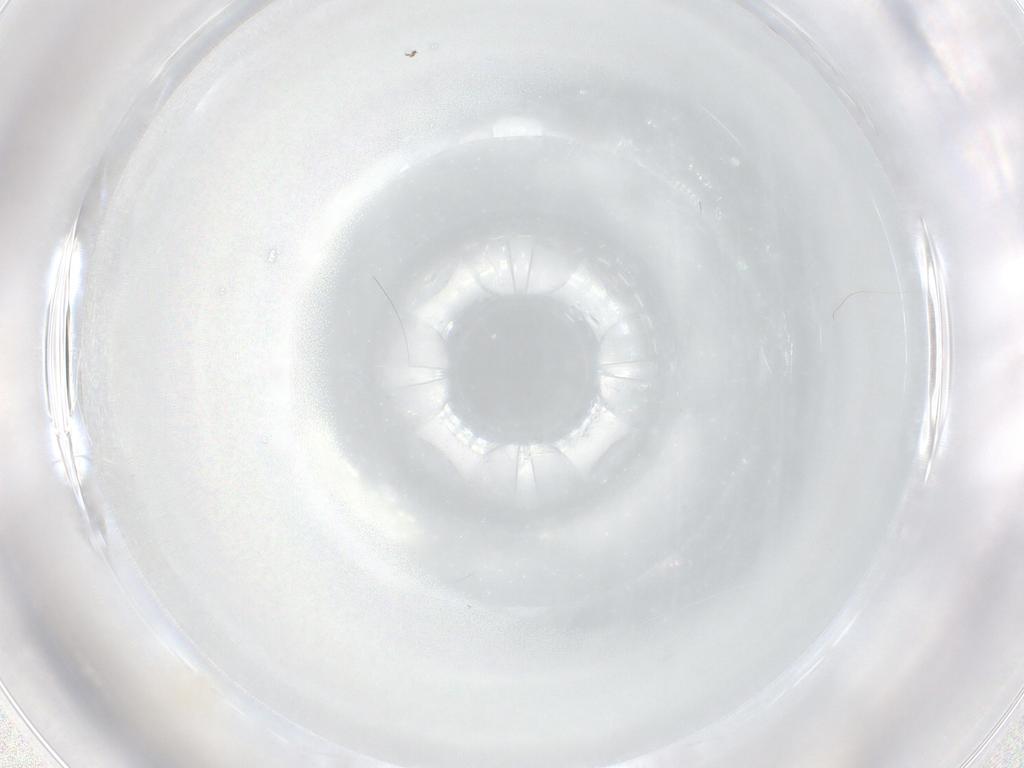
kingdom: Animalia
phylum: Arthropoda
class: Arachnida
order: Trombidiformes
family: Eupodidae
